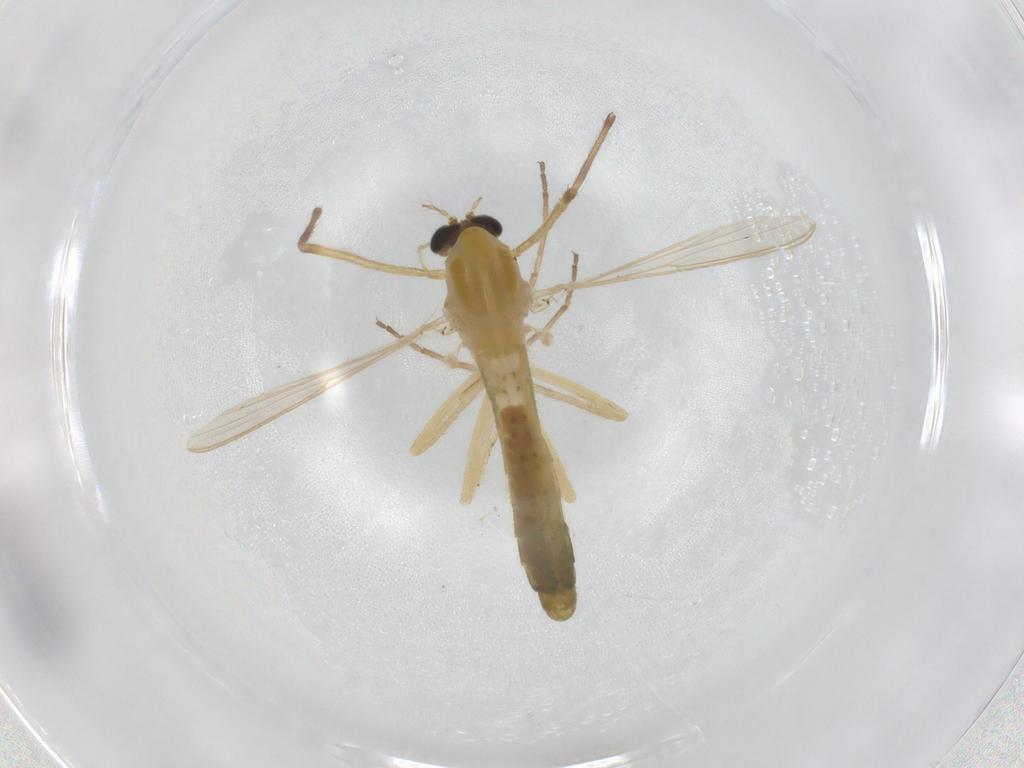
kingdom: Animalia
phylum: Arthropoda
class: Insecta
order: Diptera
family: Chironomidae
